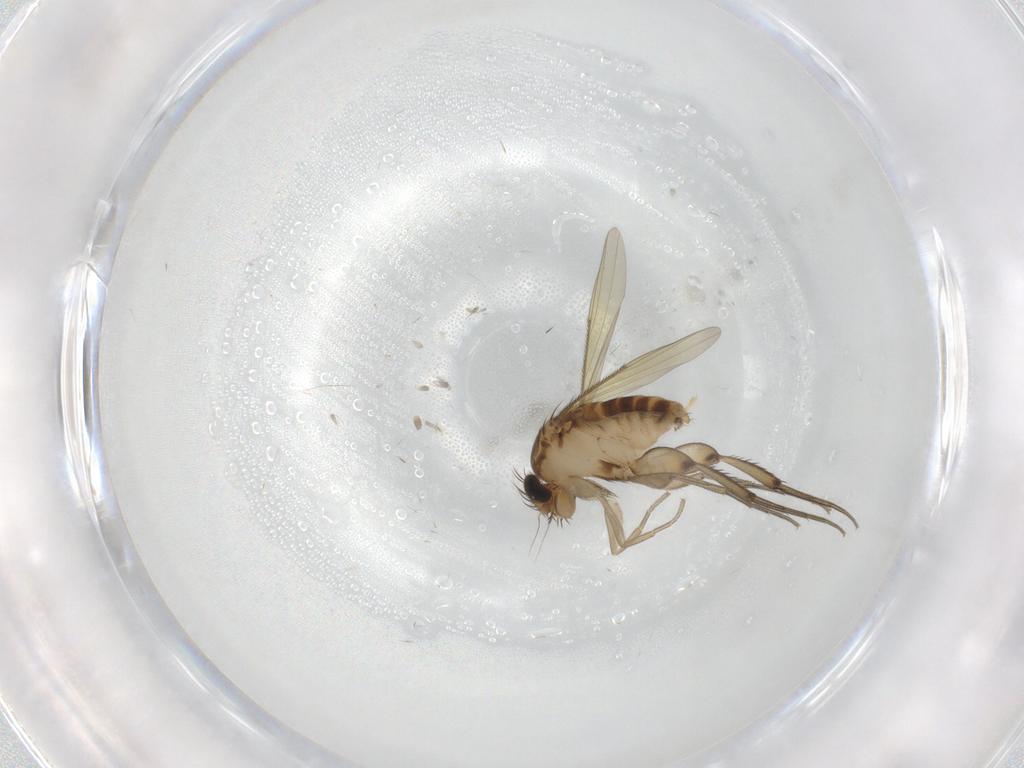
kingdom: Animalia
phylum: Arthropoda
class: Insecta
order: Diptera
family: Phoridae
